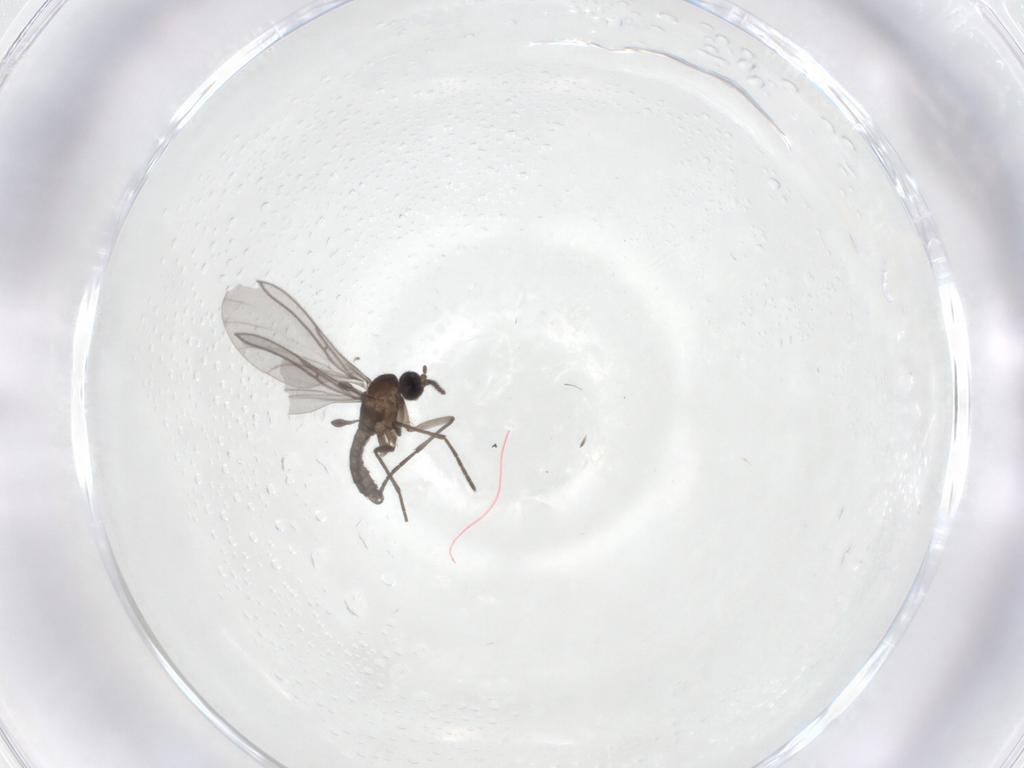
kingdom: Animalia
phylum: Arthropoda
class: Insecta
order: Diptera
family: Sciaridae
